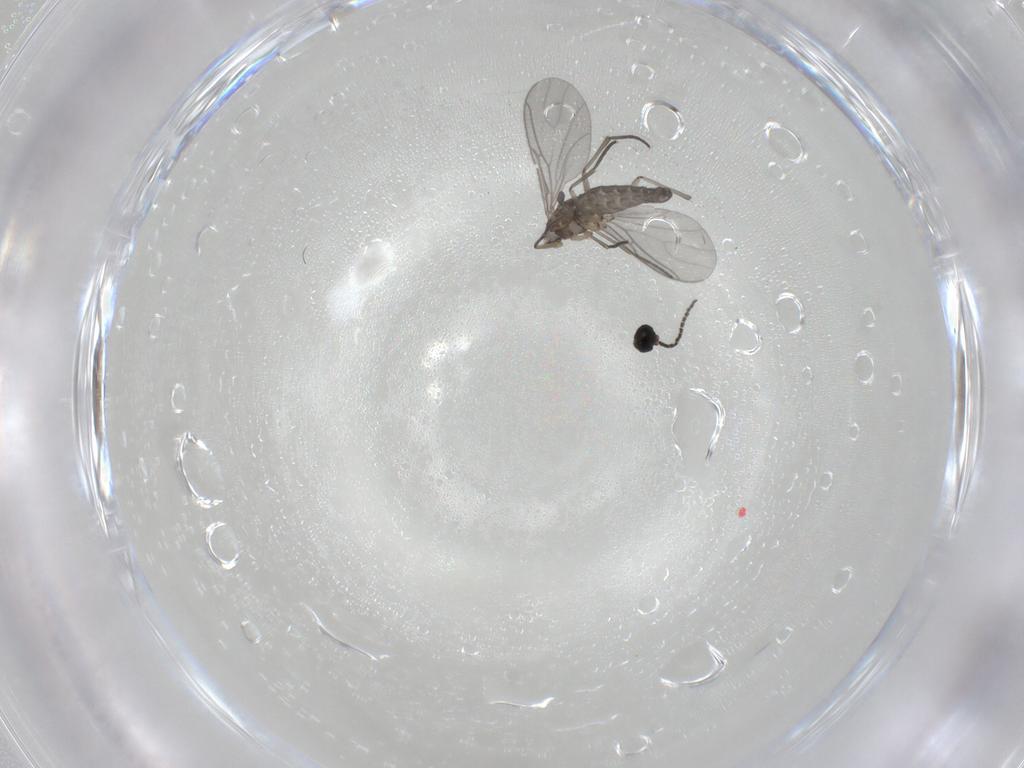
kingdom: Animalia
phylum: Arthropoda
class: Insecta
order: Diptera
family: Sciaridae
